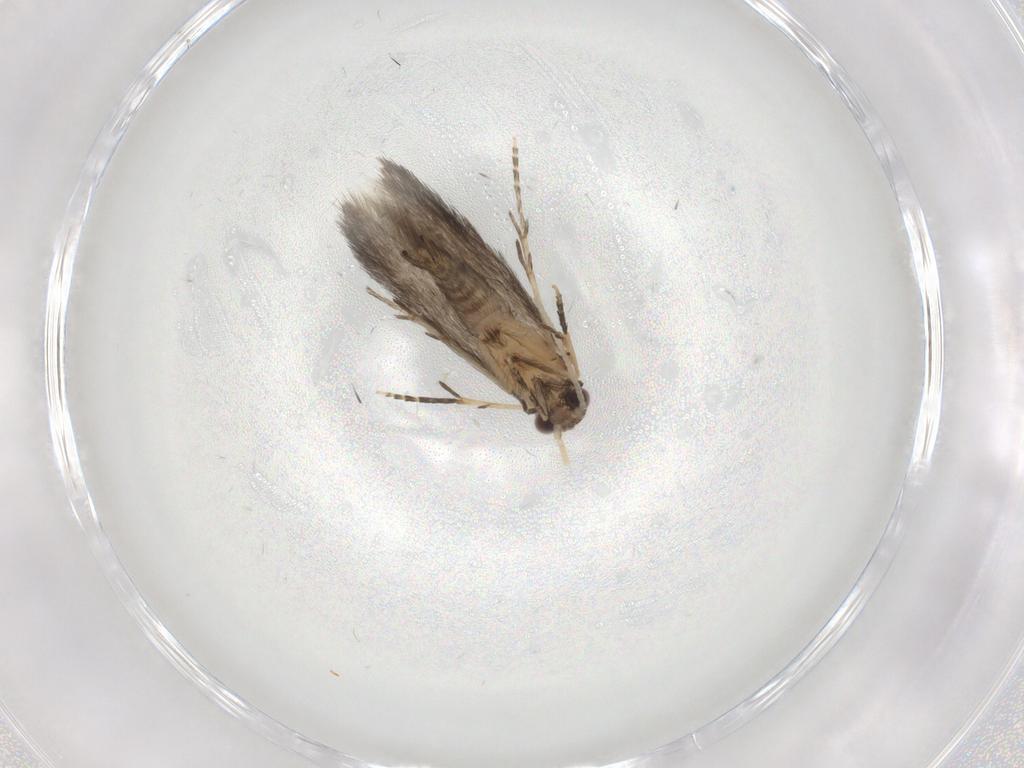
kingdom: Animalia
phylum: Arthropoda
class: Insecta
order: Trichoptera
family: Hydroptilidae
